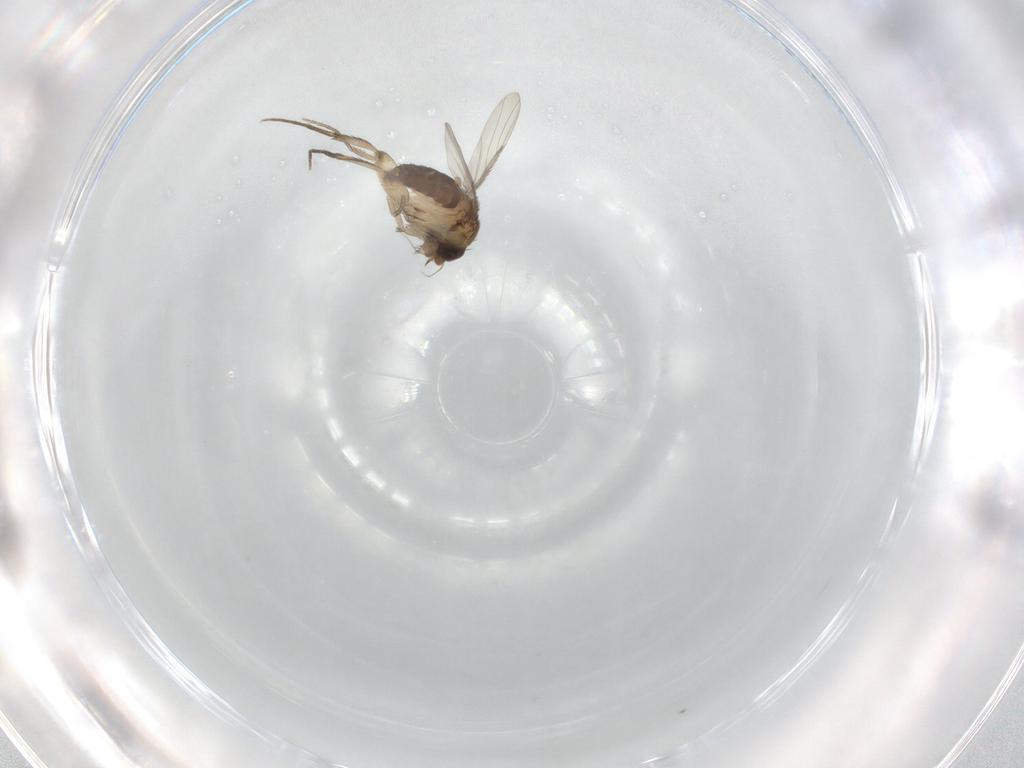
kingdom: Animalia
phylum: Arthropoda
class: Insecta
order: Diptera
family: Phoridae
